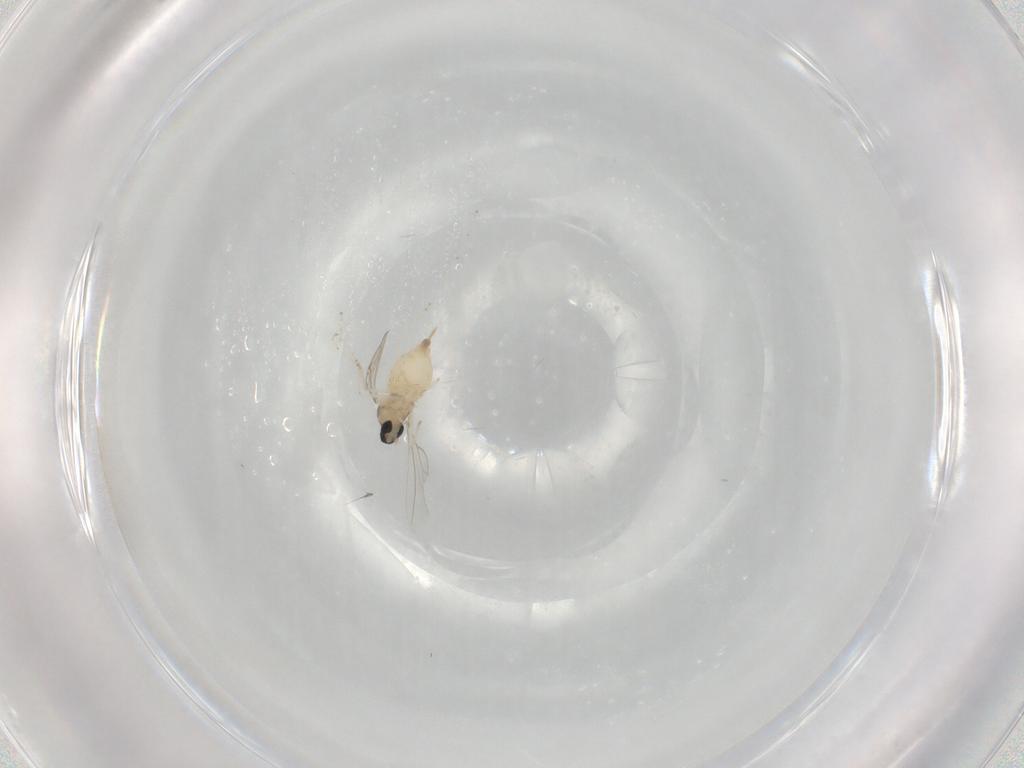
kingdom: Animalia
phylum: Arthropoda
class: Insecta
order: Diptera
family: Cecidomyiidae
